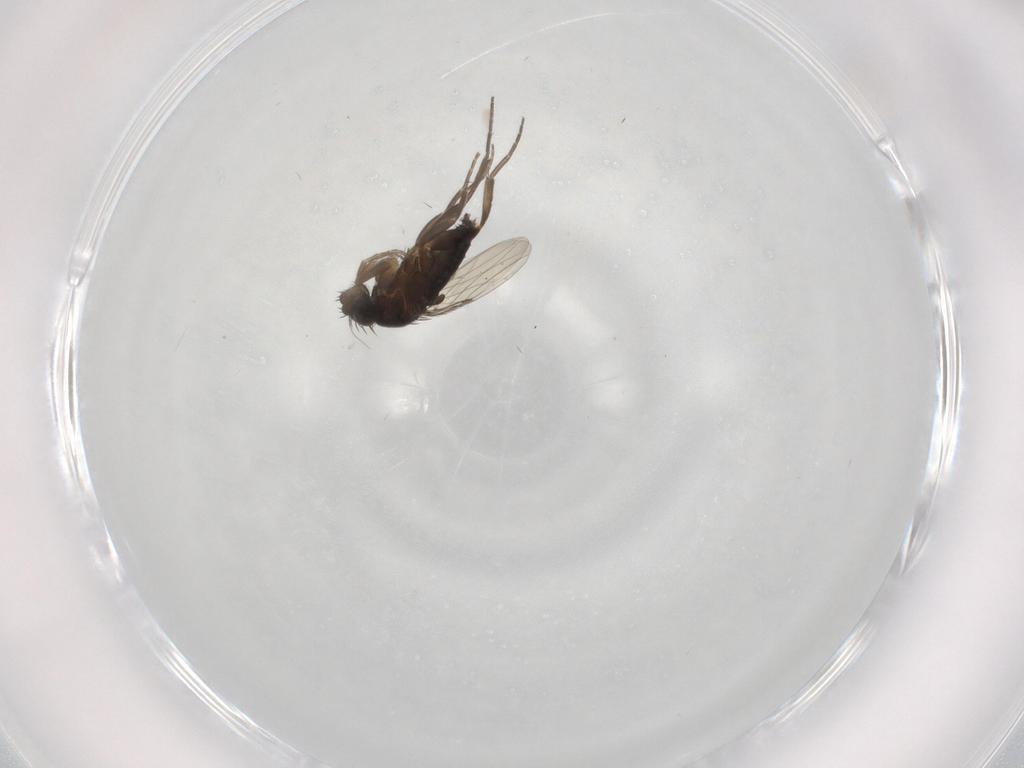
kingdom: Animalia
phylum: Arthropoda
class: Insecta
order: Diptera
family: Phoridae
